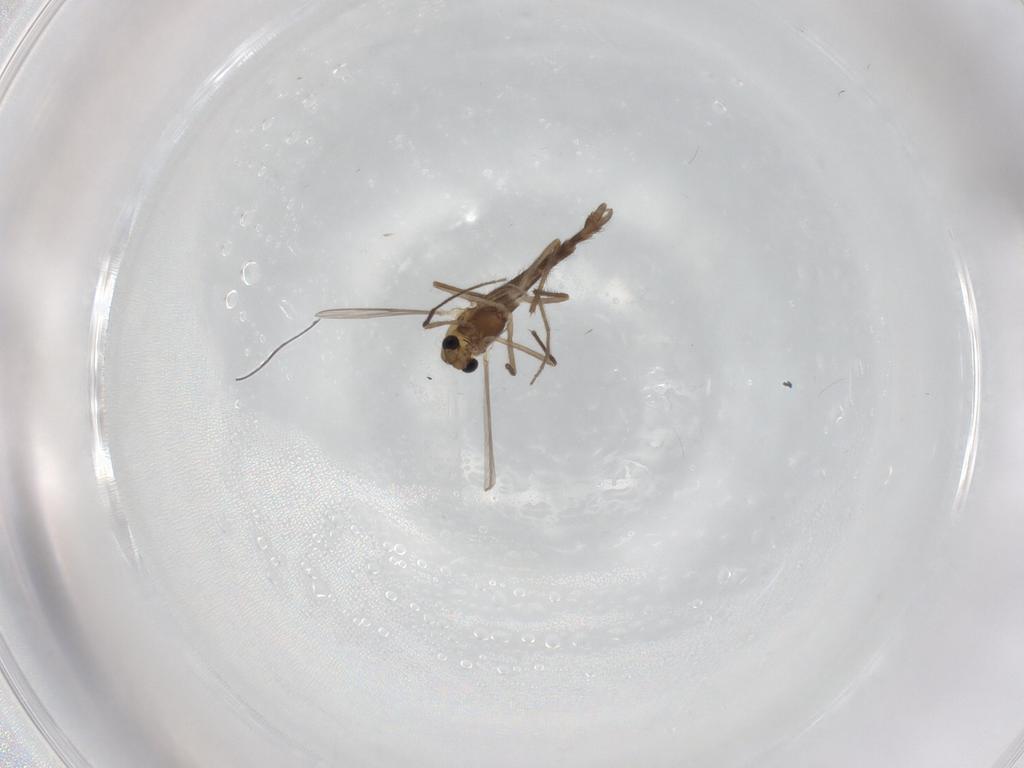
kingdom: Animalia
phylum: Arthropoda
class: Insecta
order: Diptera
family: Chironomidae
